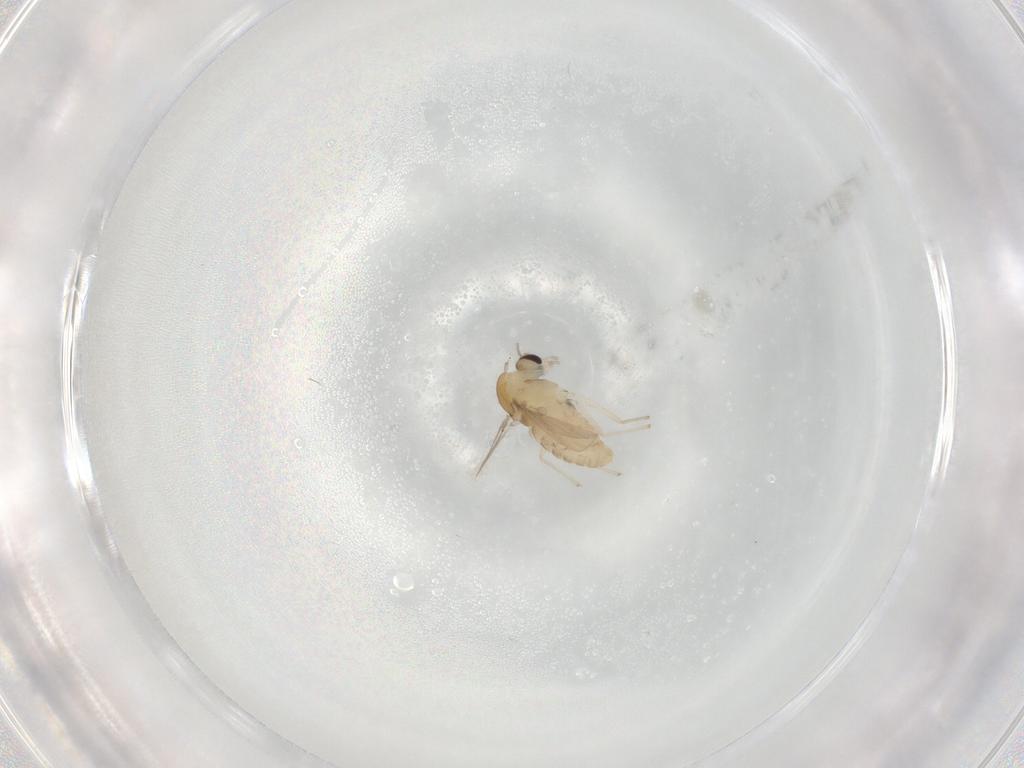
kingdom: Animalia
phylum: Arthropoda
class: Insecta
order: Diptera
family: Chironomidae
